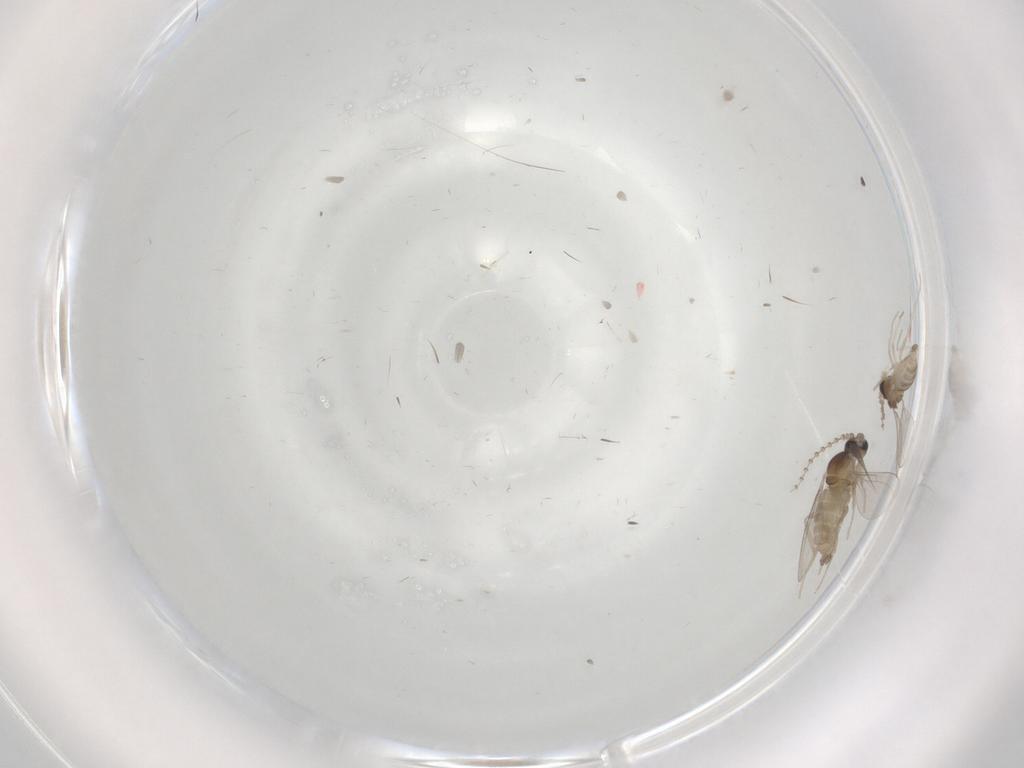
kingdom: Animalia
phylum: Arthropoda
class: Insecta
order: Diptera
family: Cecidomyiidae
